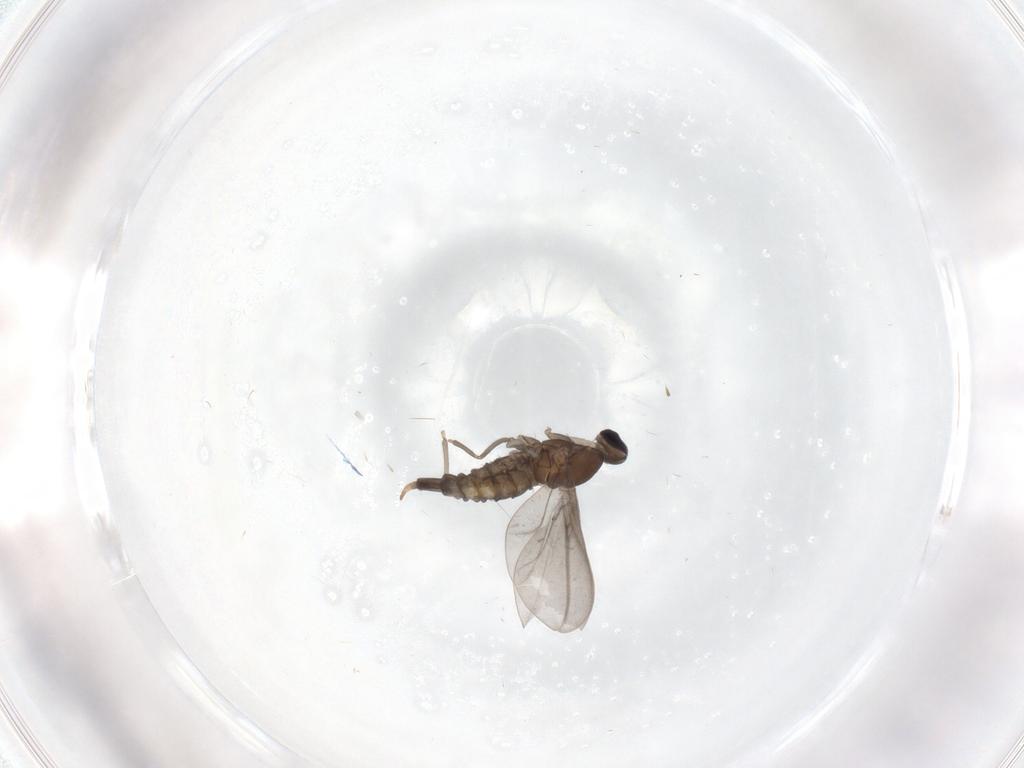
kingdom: Animalia
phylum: Arthropoda
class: Insecta
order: Diptera
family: Cecidomyiidae
